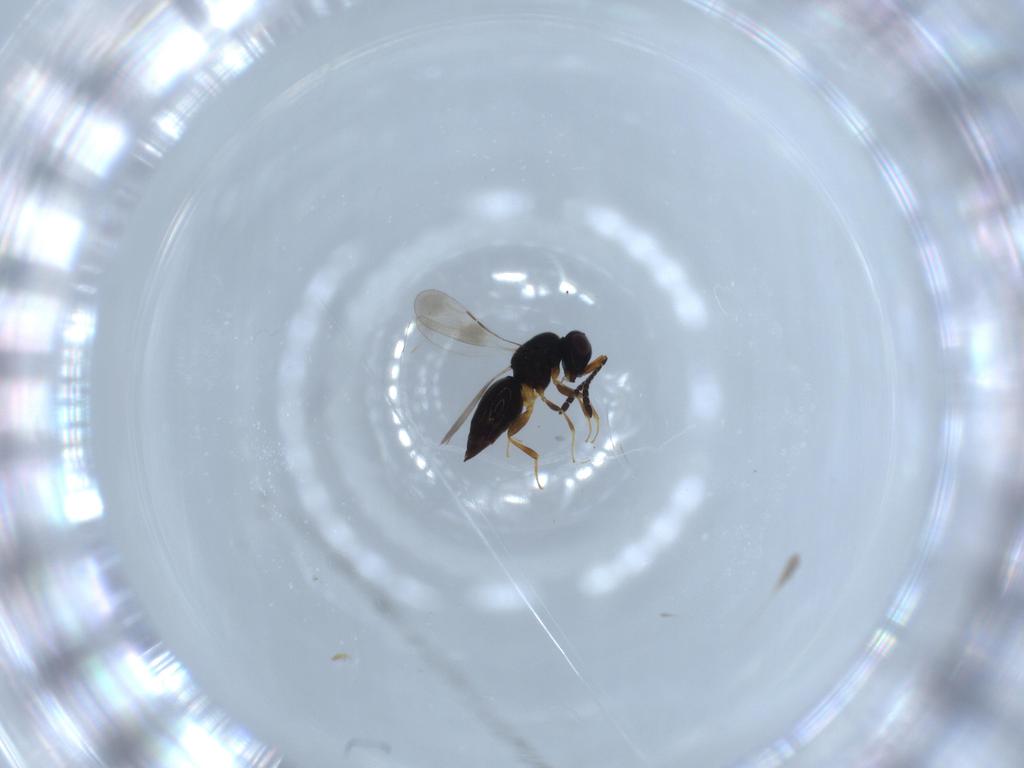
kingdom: Animalia
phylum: Arthropoda
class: Insecta
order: Hymenoptera
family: Ceraphronidae
